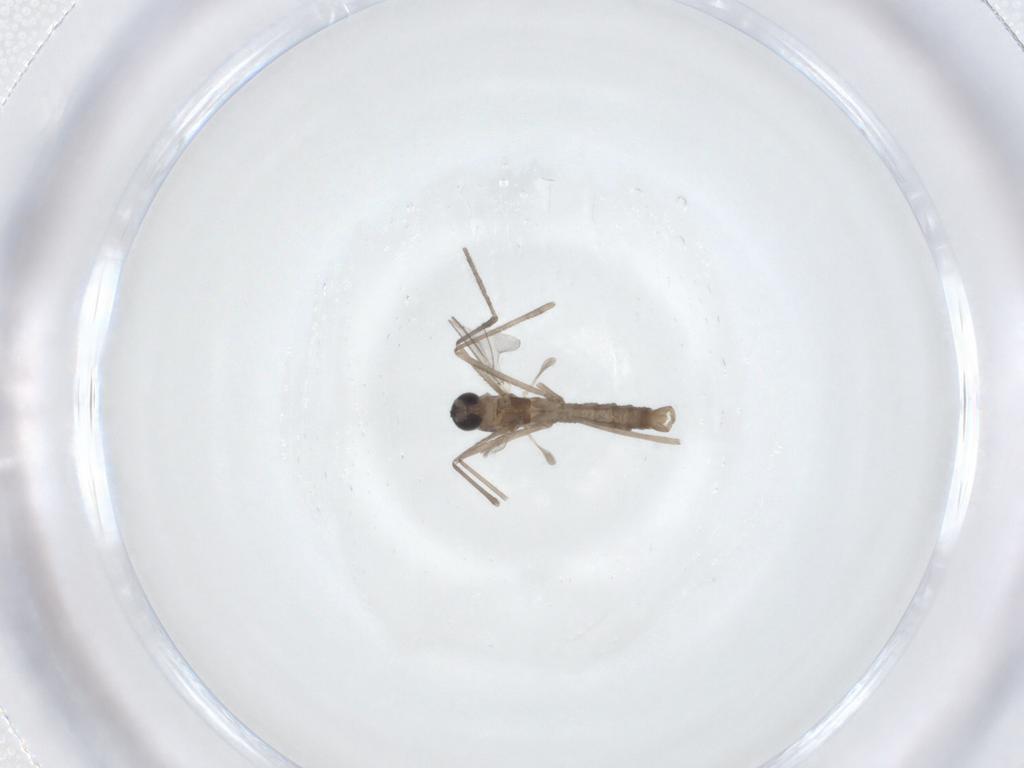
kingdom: Animalia
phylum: Arthropoda
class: Insecta
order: Diptera
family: Cecidomyiidae
